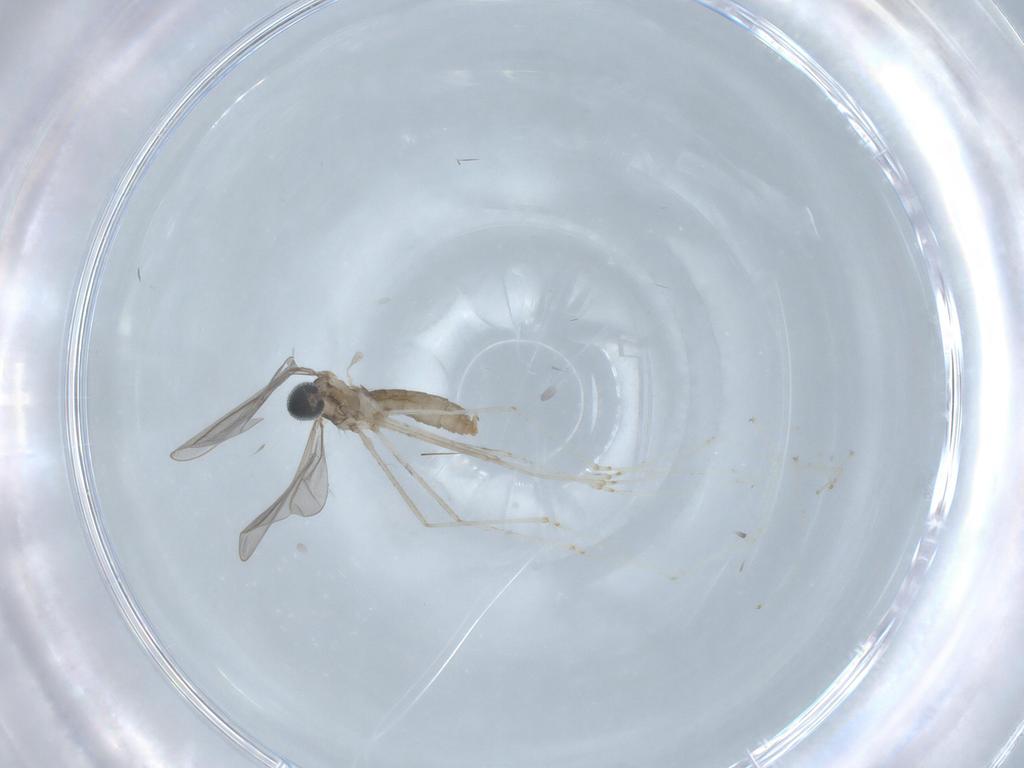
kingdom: Animalia
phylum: Arthropoda
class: Insecta
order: Diptera
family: Cecidomyiidae
